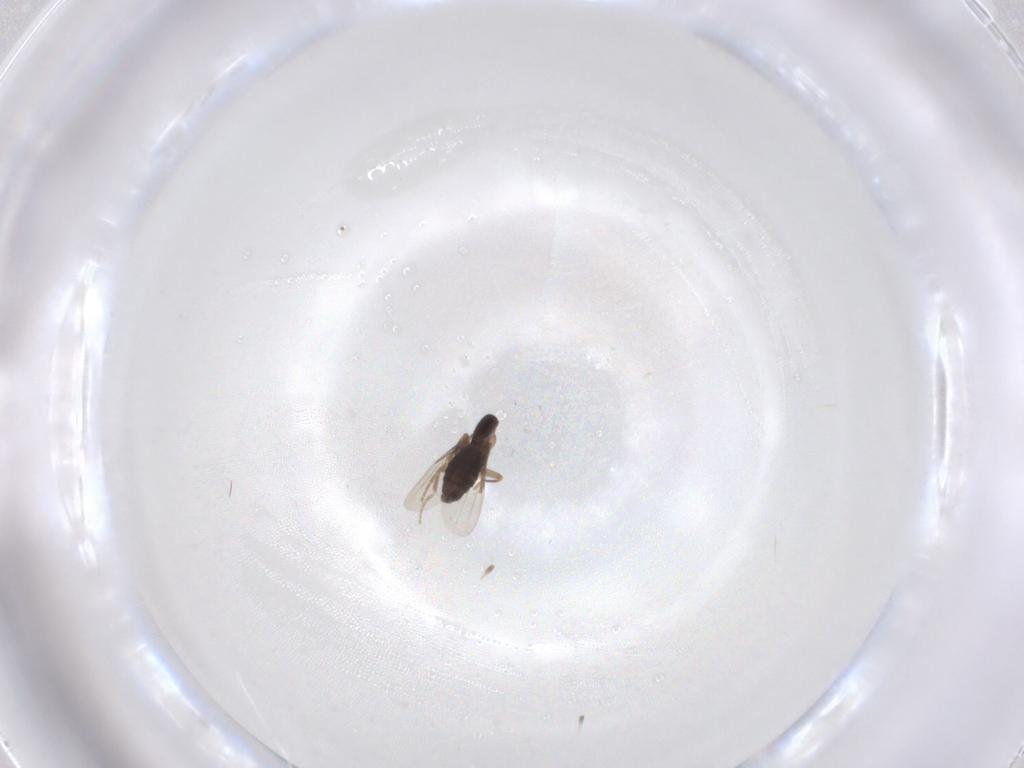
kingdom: Animalia
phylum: Arthropoda
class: Insecta
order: Diptera
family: Phoridae
